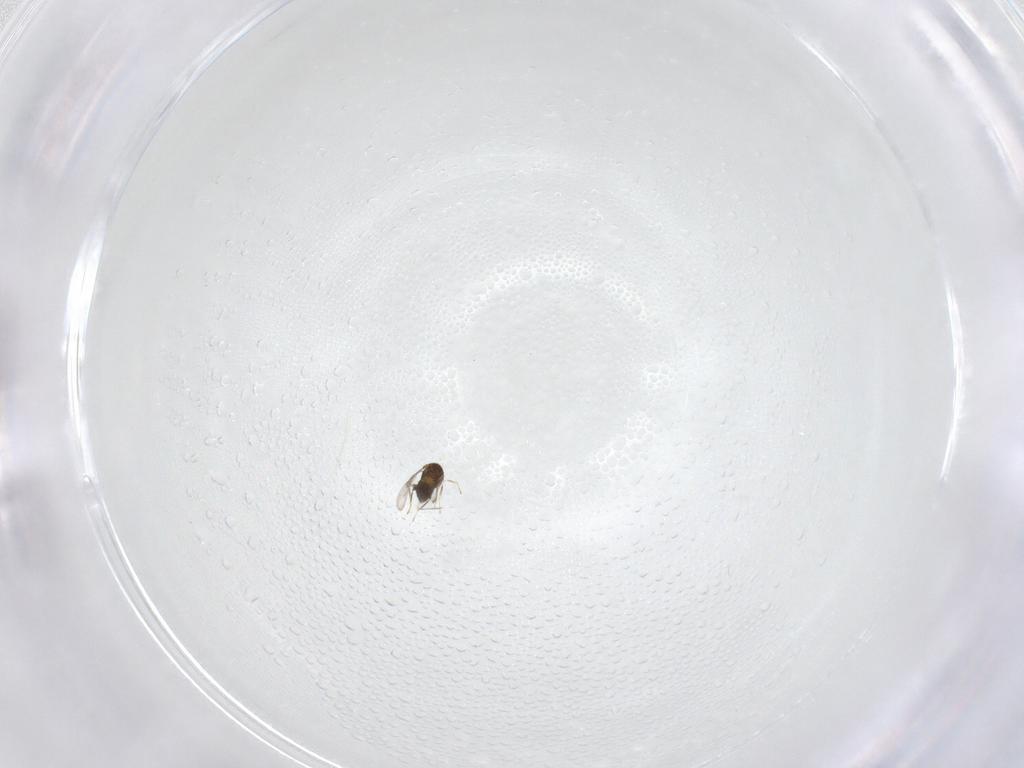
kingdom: Animalia
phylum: Arthropoda
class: Insecta
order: Hymenoptera
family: Trichogrammatidae
